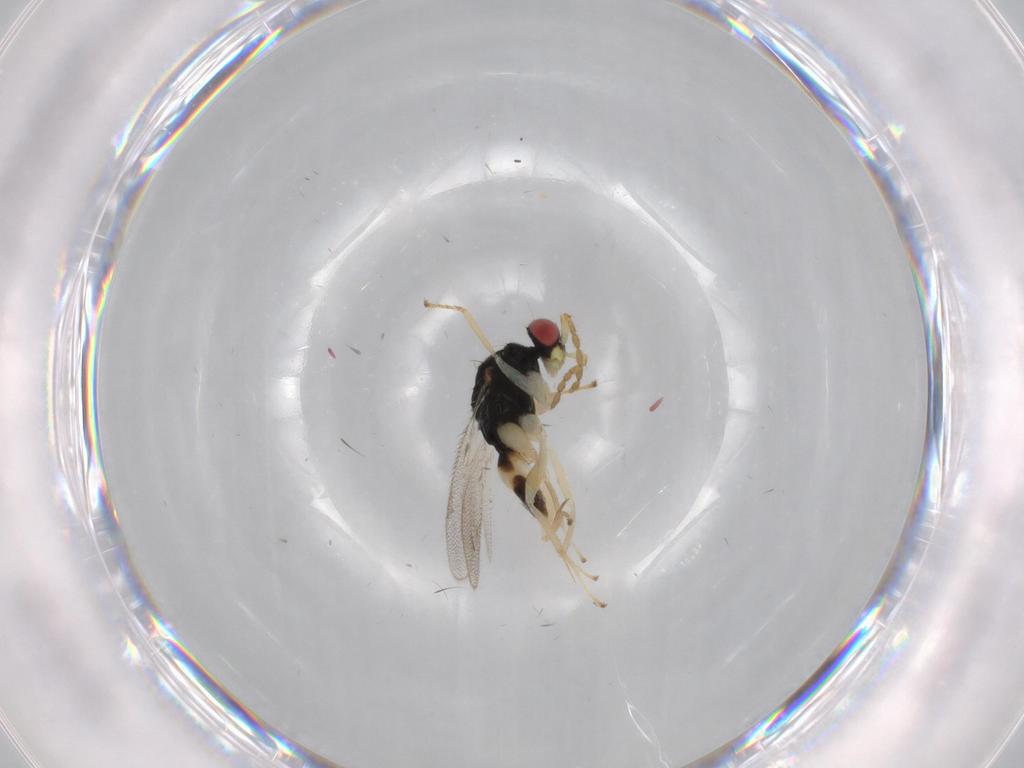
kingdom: Animalia
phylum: Arthropoda
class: Insecta
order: Hymenoptera
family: Eulophidae
